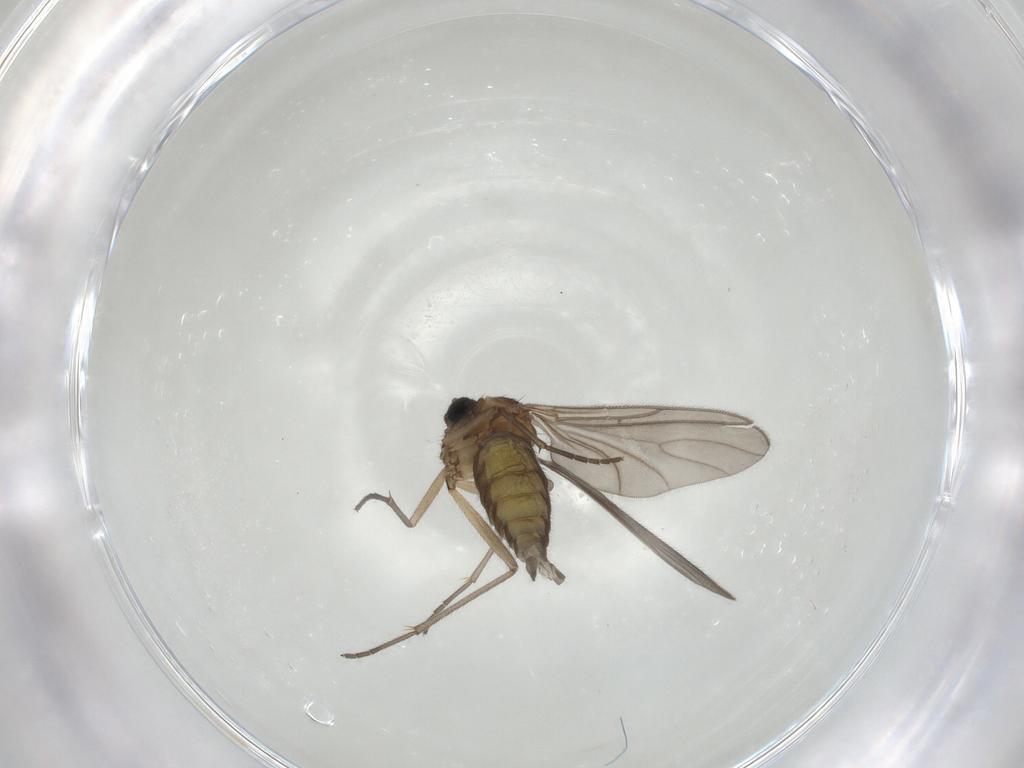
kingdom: Animalia
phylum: Arthropoda
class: Insecta
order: Diptera
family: Sciaridae
